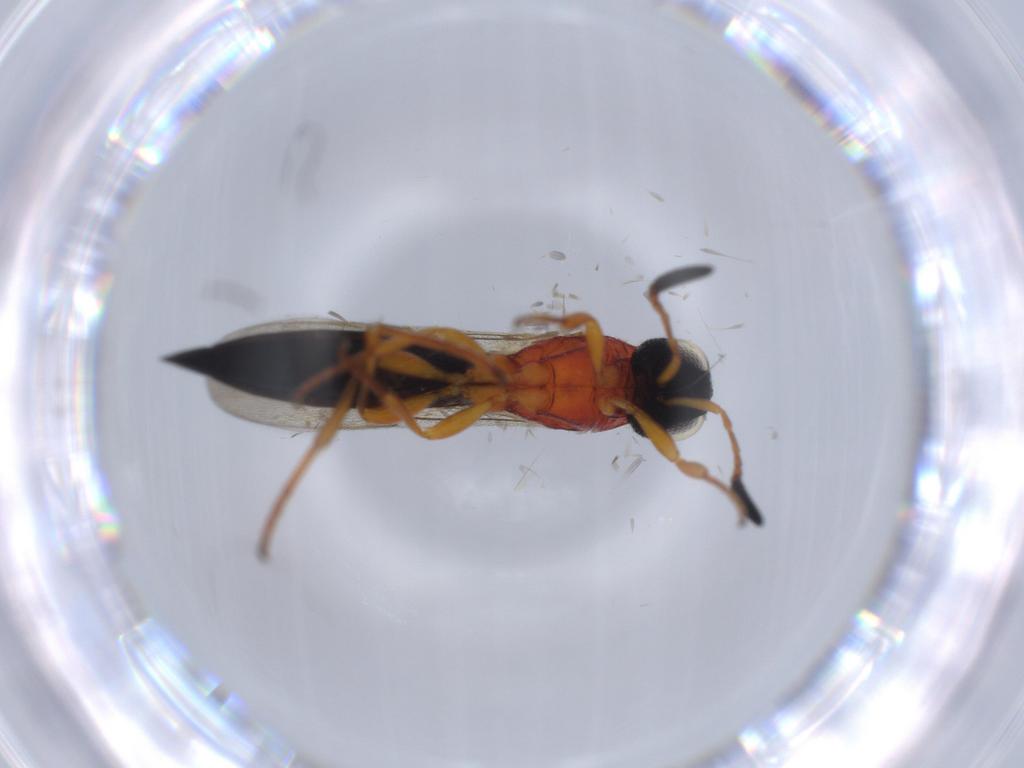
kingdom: Animalia
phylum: Arthropoda
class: Insecta
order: Hymenoptera
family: Scelionidae
